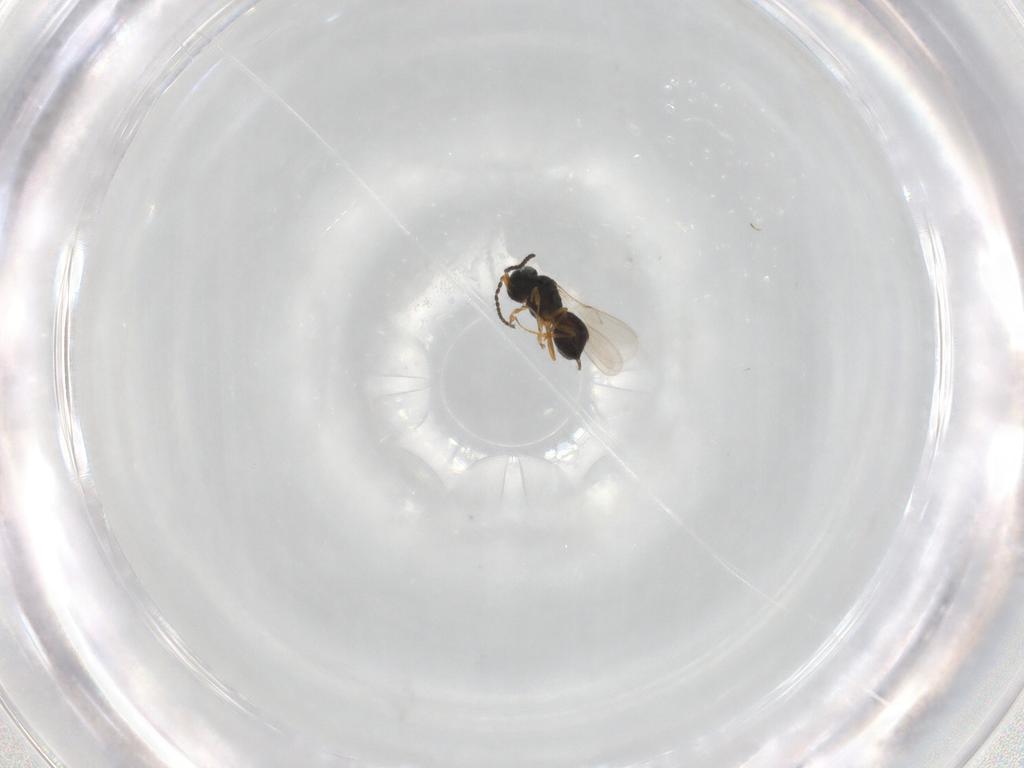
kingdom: Animalia
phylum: Arthropoda
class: Insecta
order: Hymenoptera
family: Scelionidae
